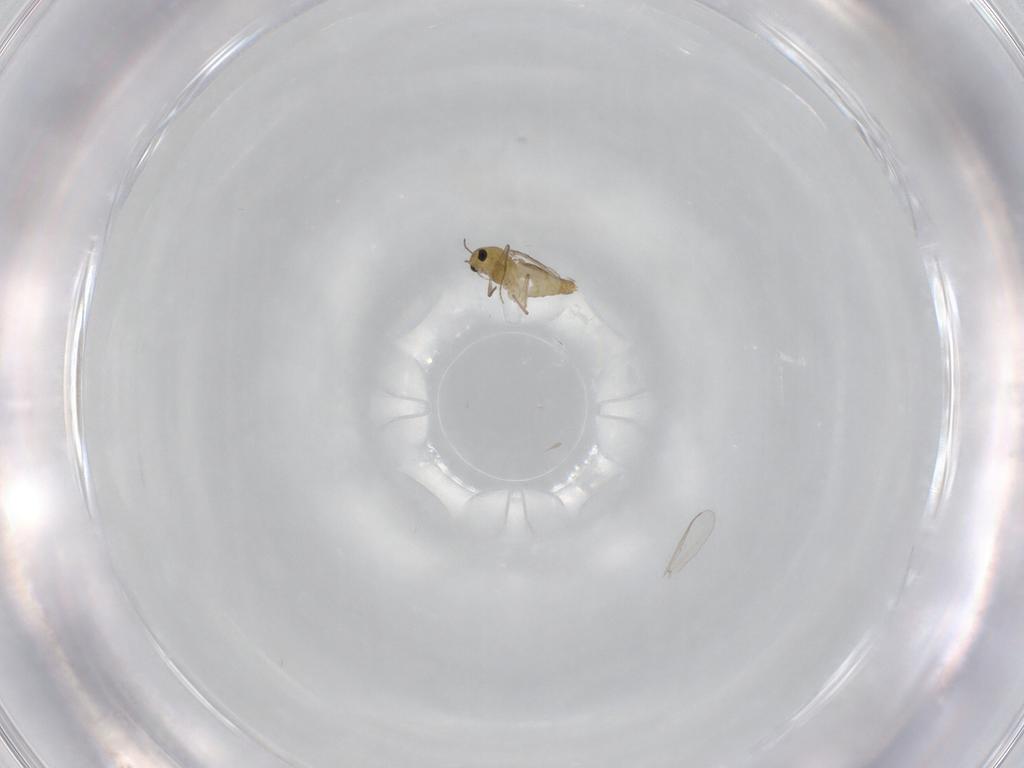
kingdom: Animalia
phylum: Arthropoda
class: Insecta
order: Diptera
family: Chironomidae
